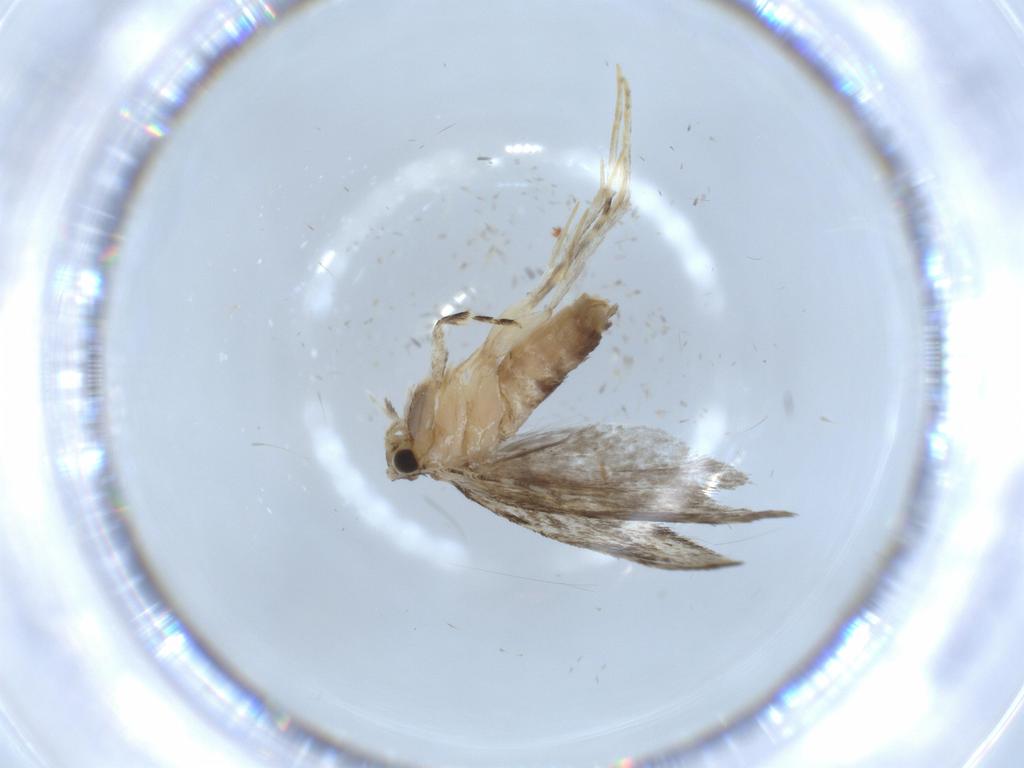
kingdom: Animalia
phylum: Arthropoda
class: Insecta
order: Lepidoptera
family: Tineidae
